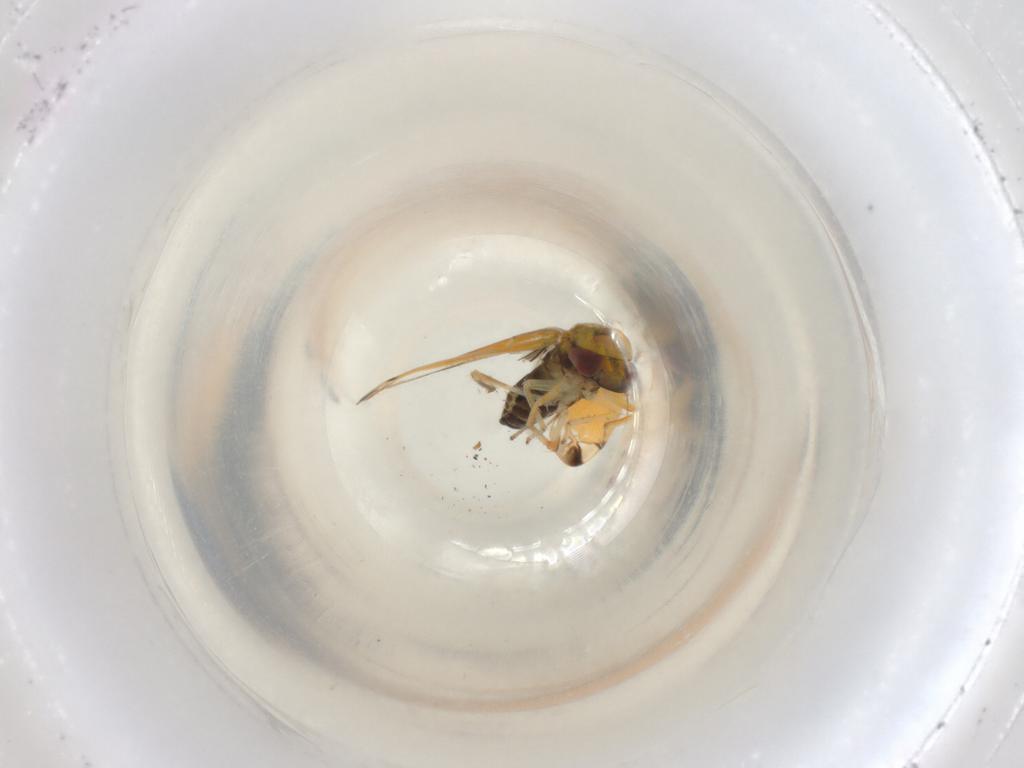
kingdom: Animalia
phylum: Arthropoda
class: Insecta
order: Hemiptera
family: Cicadellidae
